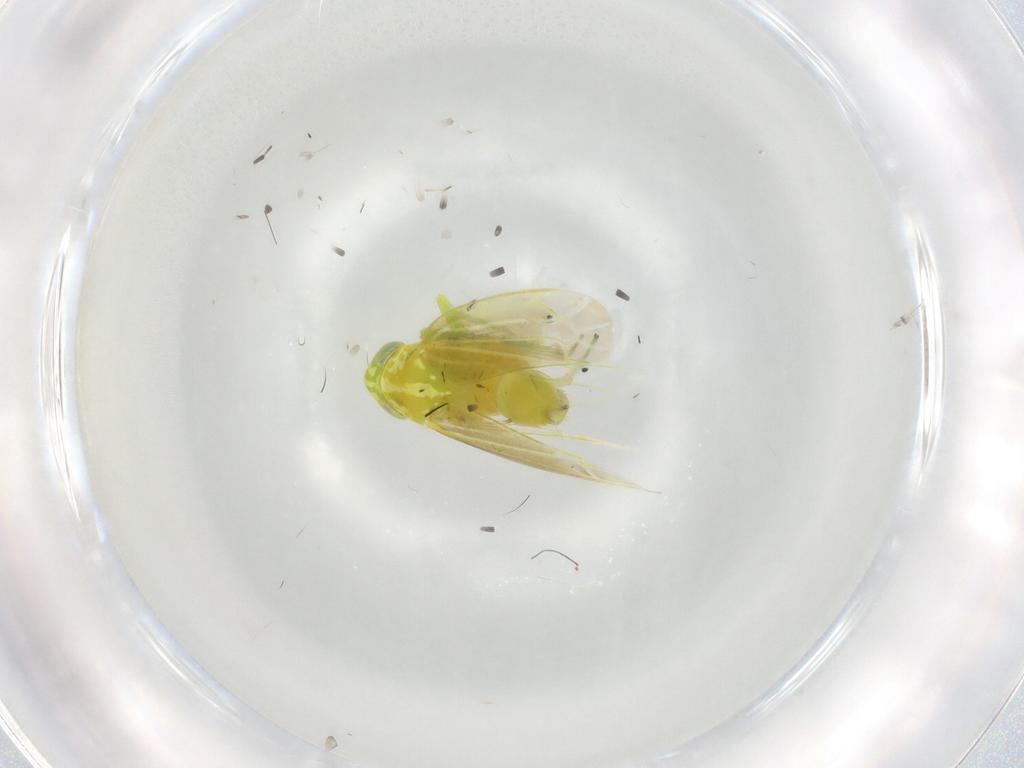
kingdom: Animalia
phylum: Arthropoda
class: Insecta
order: Hemiptera
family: Cicadellidae
